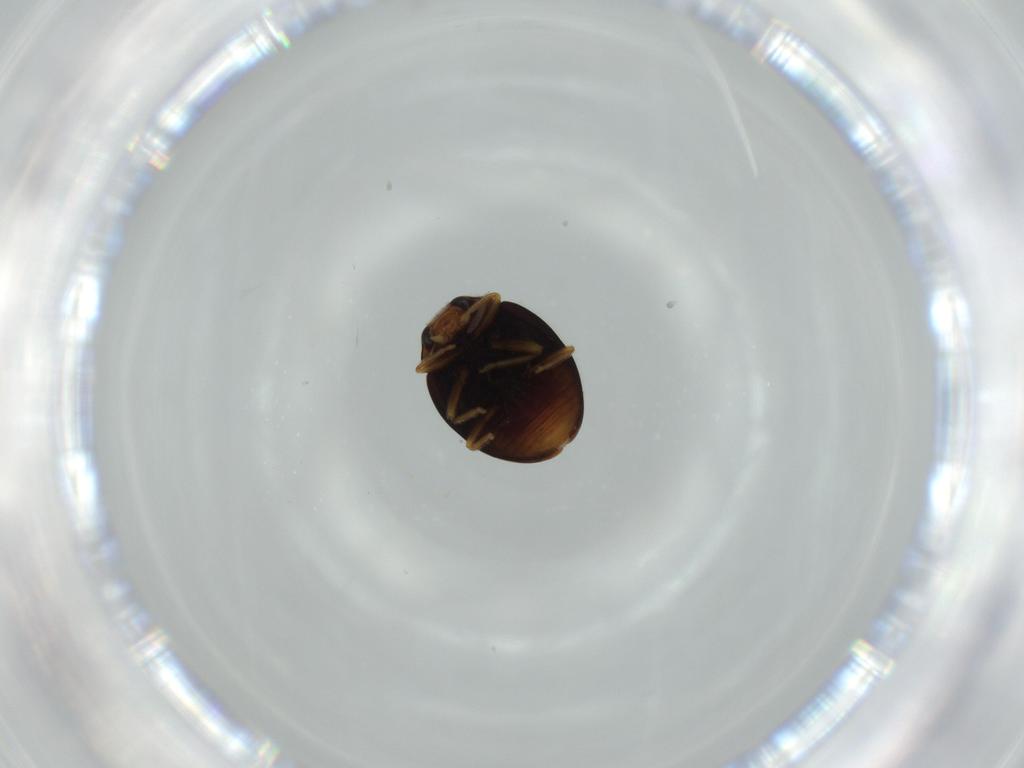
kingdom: Animalia
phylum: Arthropoda
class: Insecta
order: Coleoptera
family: Coccinellidae
